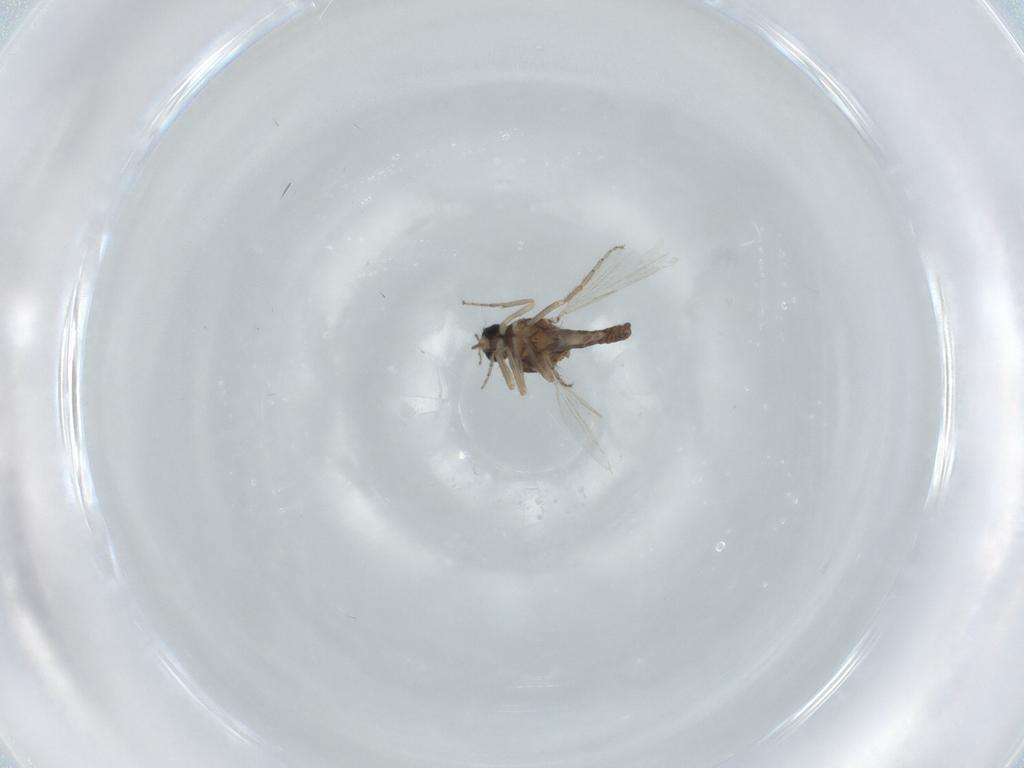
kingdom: Animalia
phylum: Arthropoda
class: Insecta
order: Diptera
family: Ceratopogonidae
